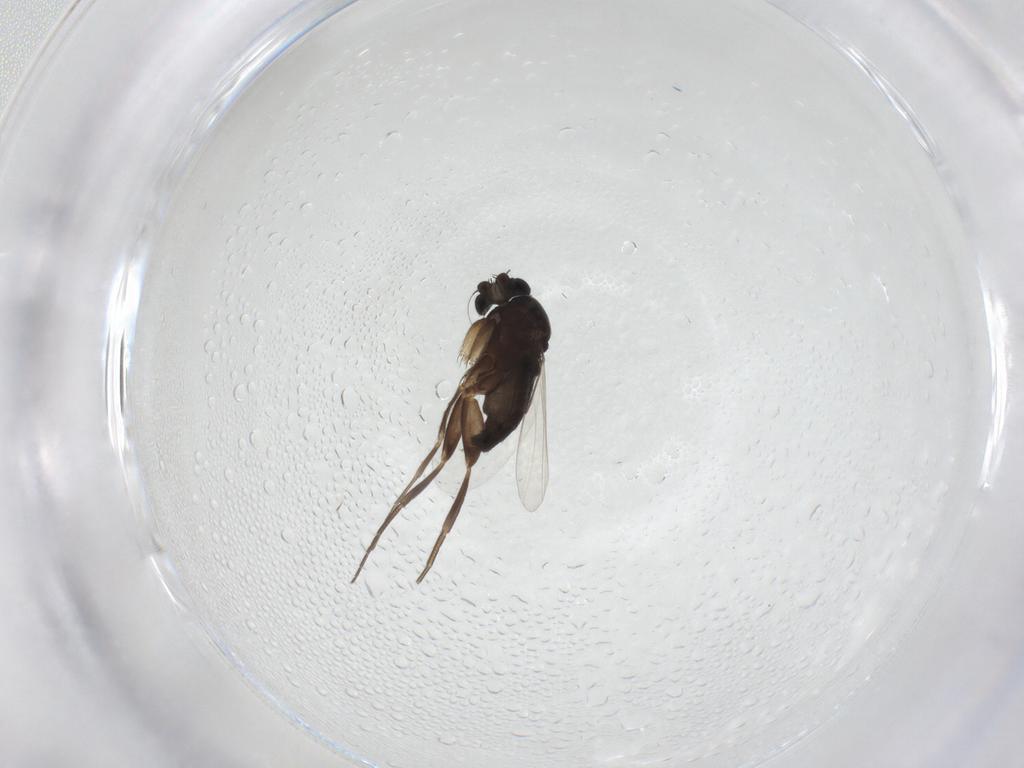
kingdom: Animalia
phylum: Arthropoda
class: Insecta
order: Diptera
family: Phoridae
